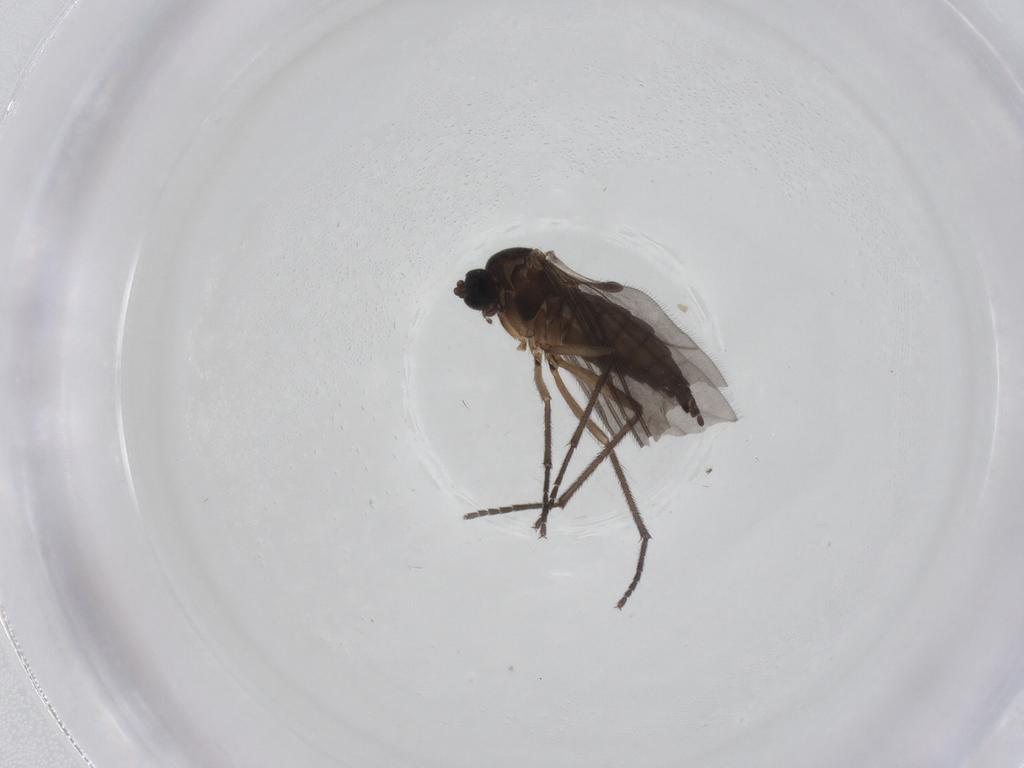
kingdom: Animalia
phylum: Arthropoda
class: Insecta
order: Diptera
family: Sciaridae
